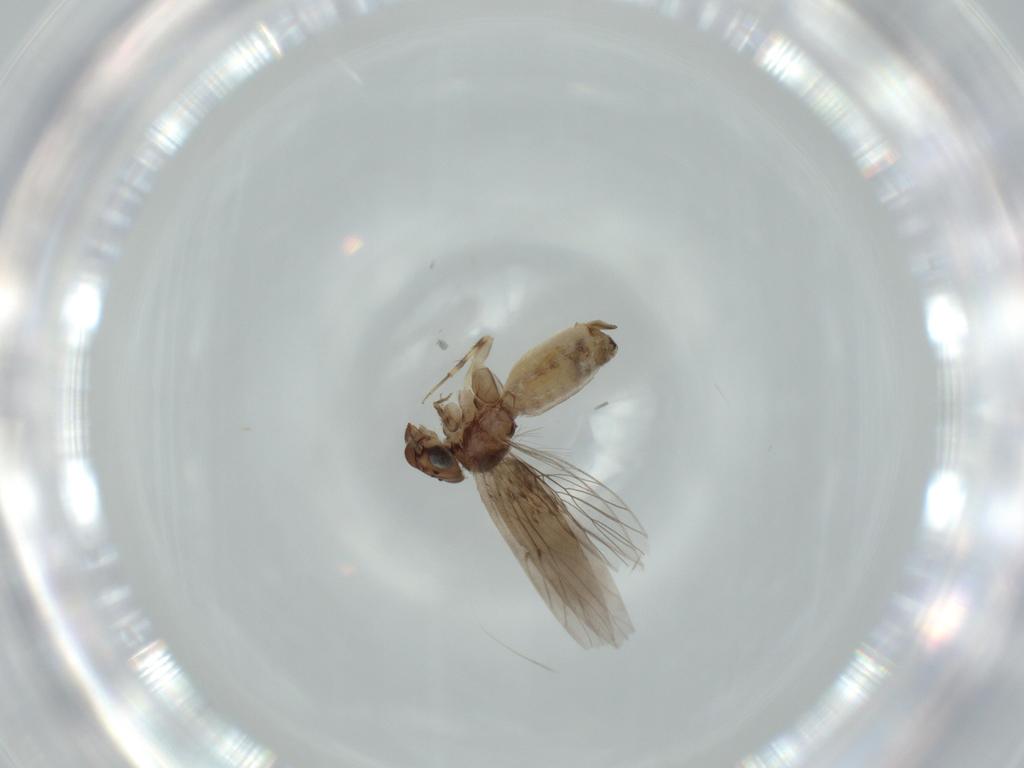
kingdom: Animalia
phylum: Arthropoda
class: Insecta
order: Psocodea
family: Lepidopsocidae
